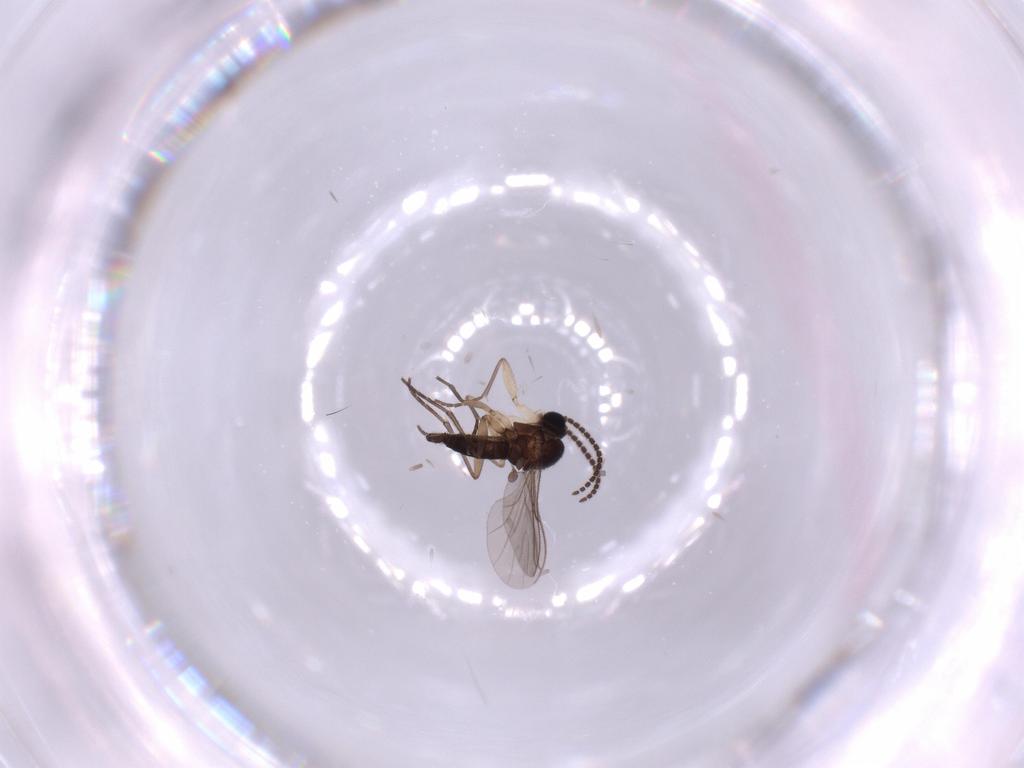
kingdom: Animalia
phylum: Arthropoda
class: Insecta
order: Diptera
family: Sciaridae
